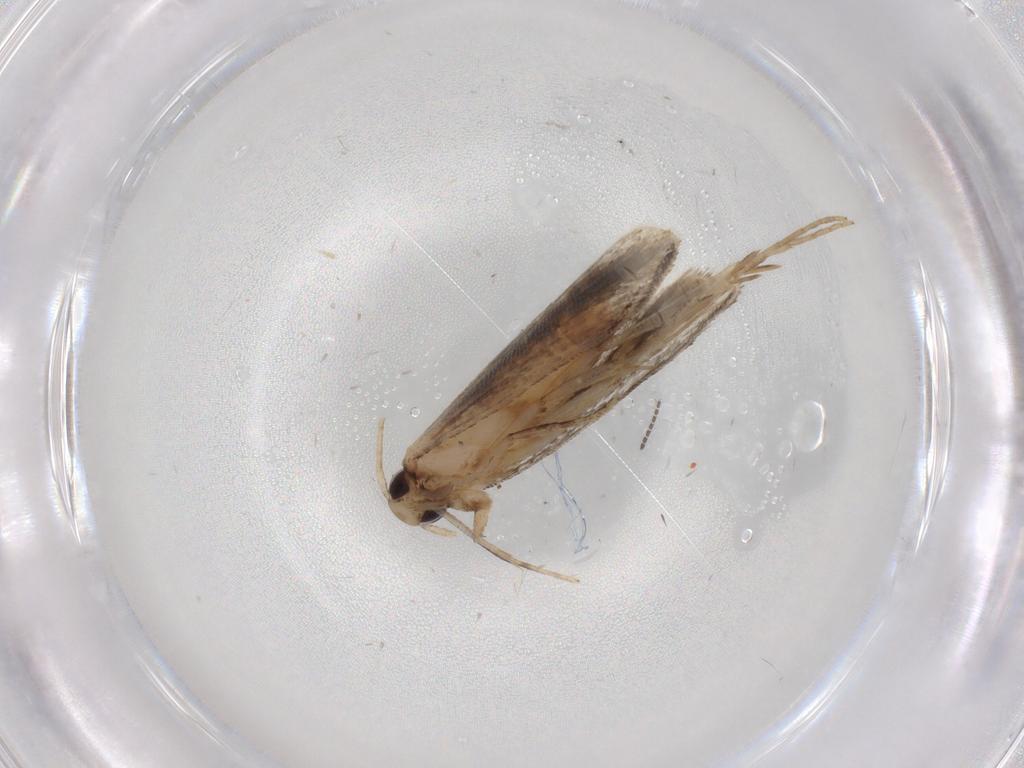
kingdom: Animalia
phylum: Arthropoda
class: Insecta
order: Lepidoptera
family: Gelechiidae
